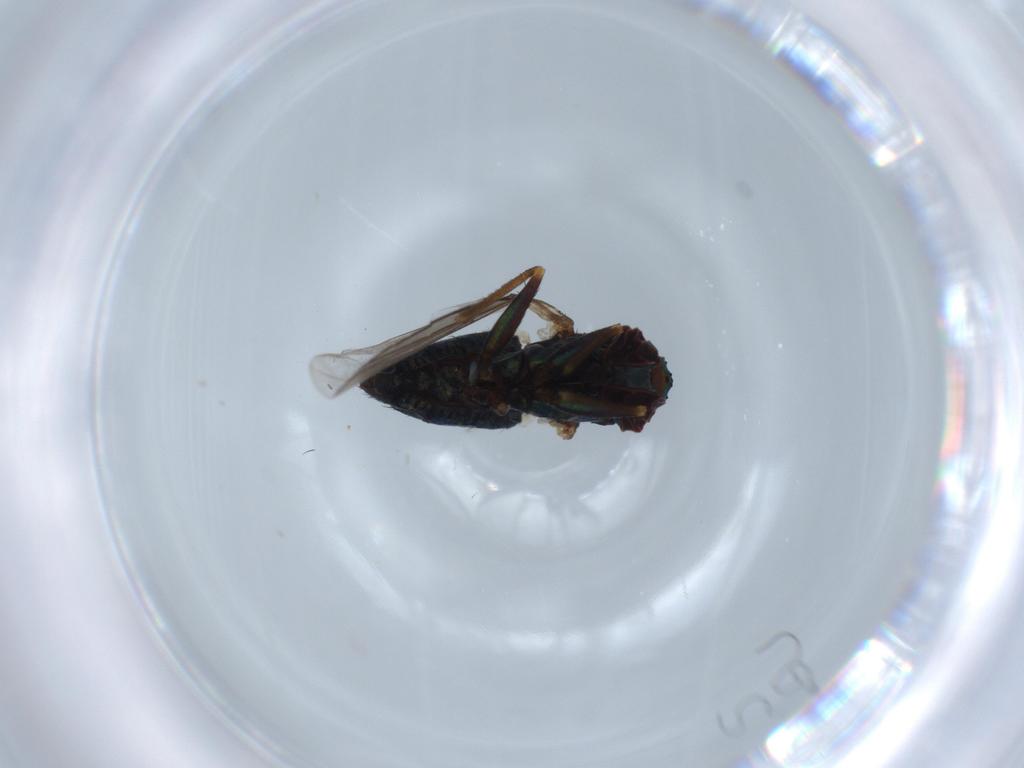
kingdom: Animalia
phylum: Arthropoda
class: Insecta
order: Diptera
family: Dolichopodidae
